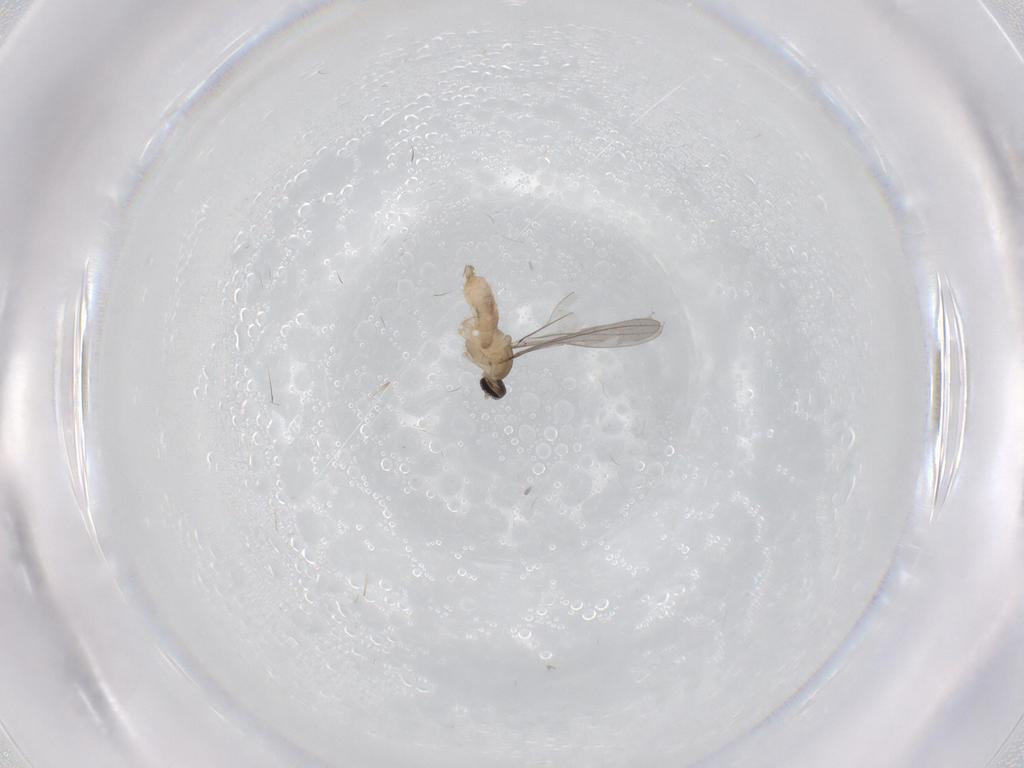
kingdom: Animalia
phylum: Arthropoda
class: Insecta
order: Diptera
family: Cecidomyiidae
